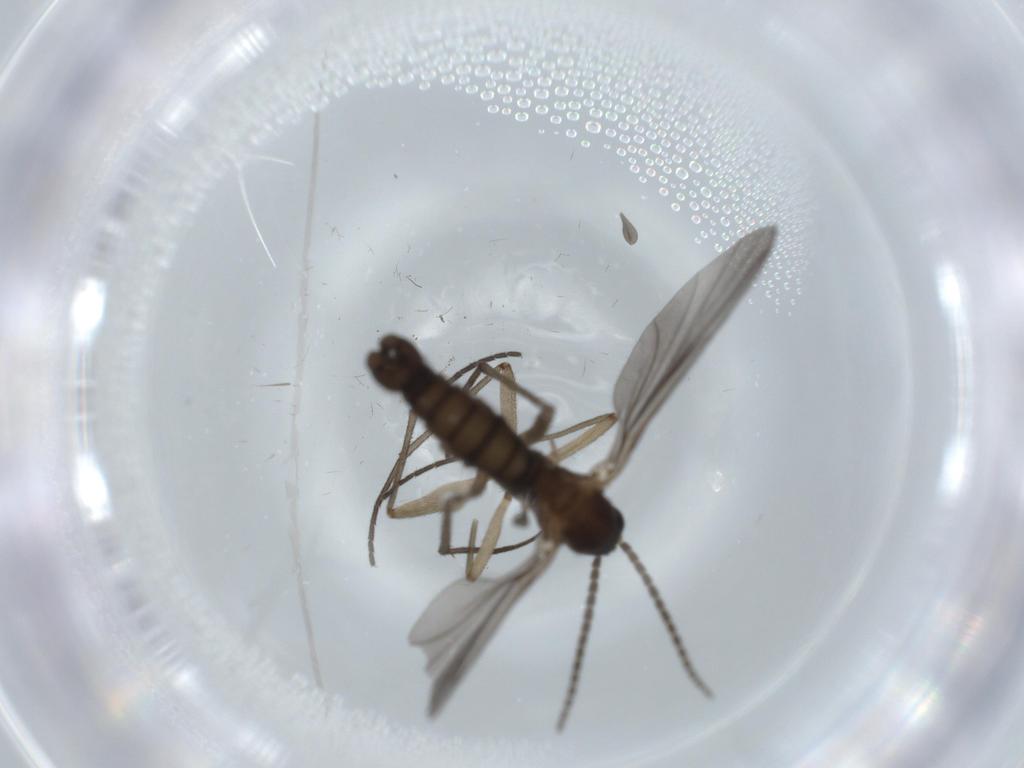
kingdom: Animalia
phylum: Arthropoda
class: Insecta
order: Diptera
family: Sciaridae
